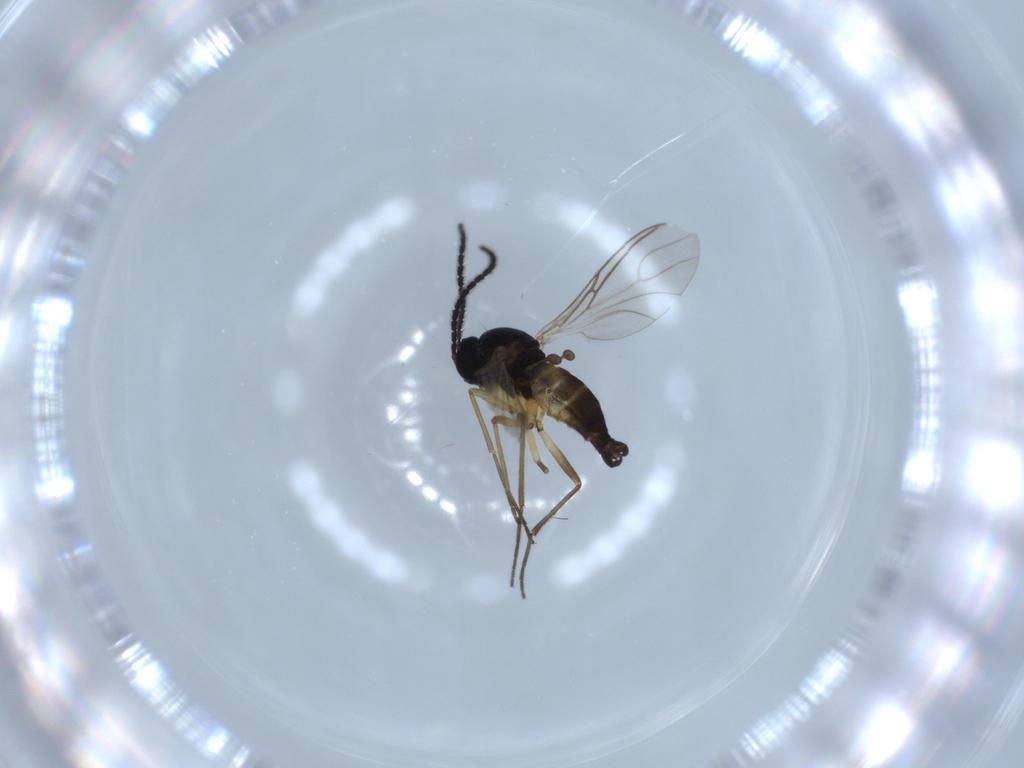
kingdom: Animalia
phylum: Arthropoda
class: Insecta
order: Diptera
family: Sciaridae
